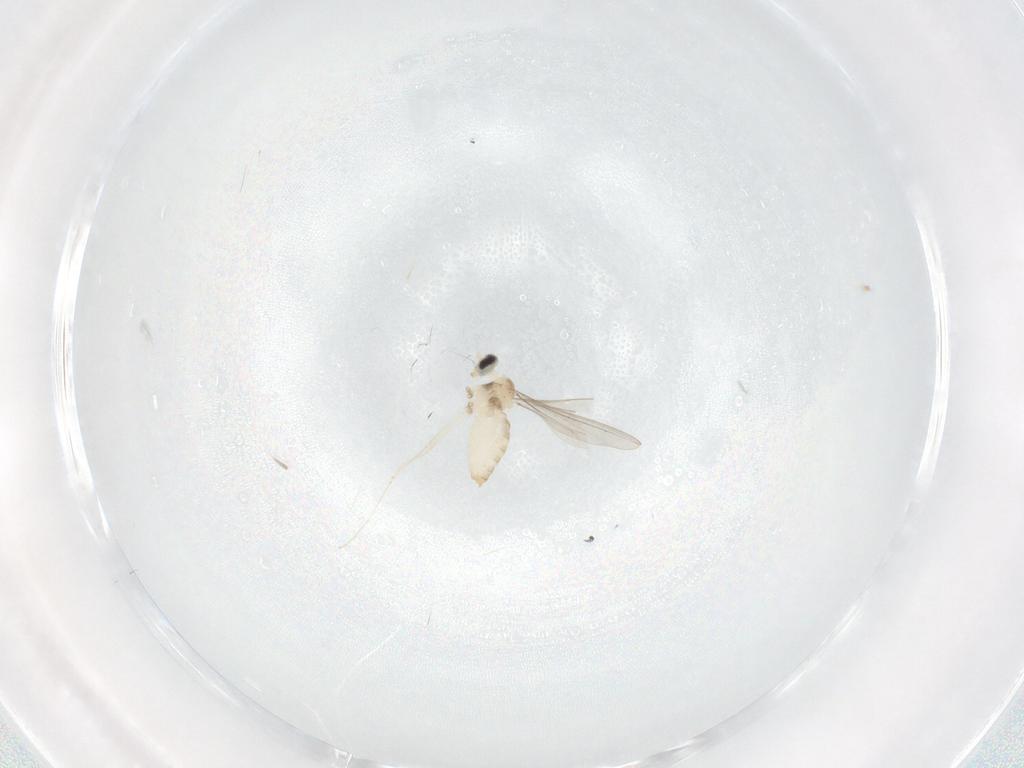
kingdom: Animalia
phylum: Arthropoda
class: Insecta
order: Diptera
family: Cecidomyiidae
